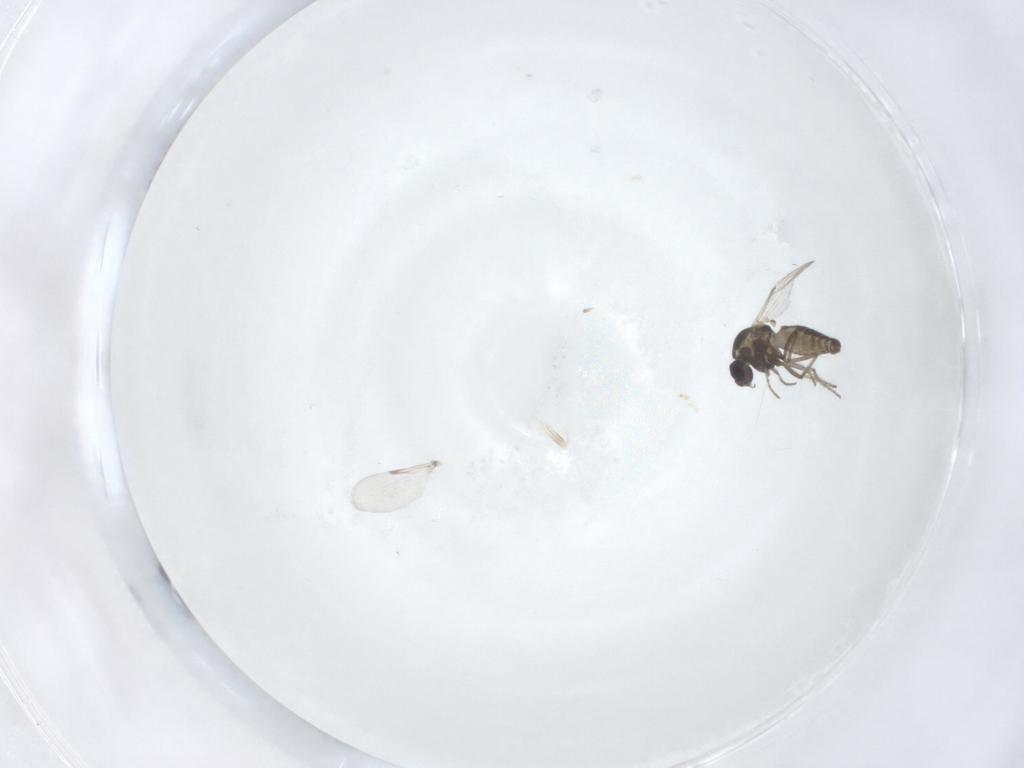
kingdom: Animalia
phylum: Arthropoda
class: Insecta
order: Diptera
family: Ceratopogonidae
